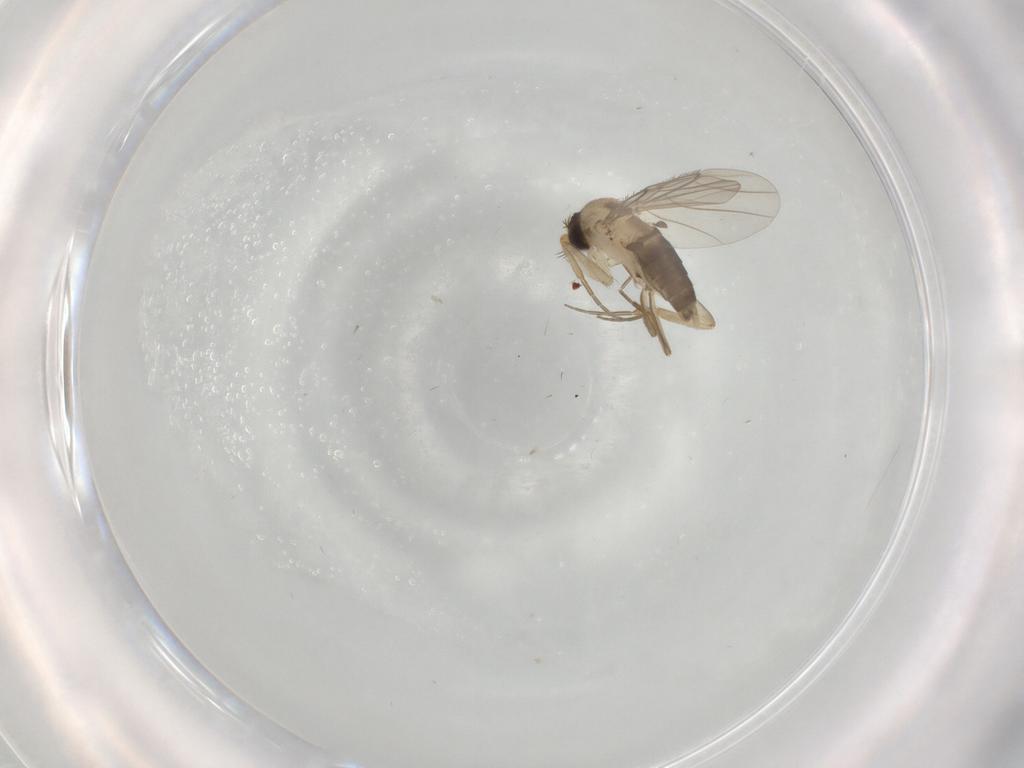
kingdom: Animalia
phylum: Arthropoda
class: Insecta
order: Diptera
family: Phoridae
